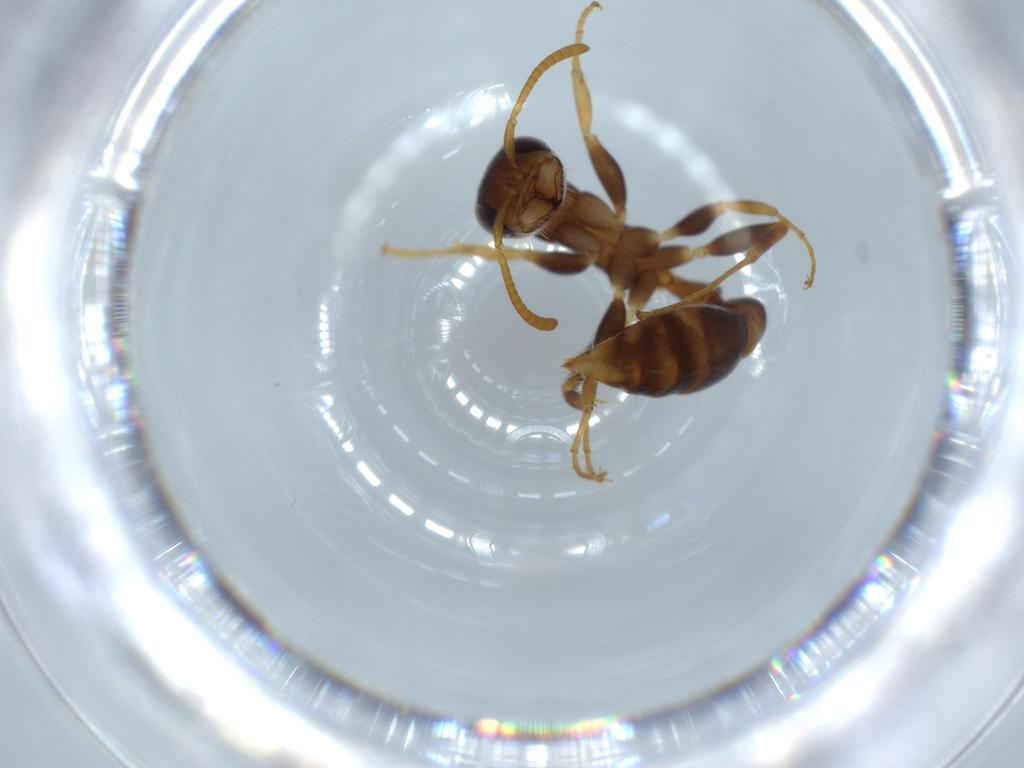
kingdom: Animalia
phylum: Arthropoda
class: Insecta
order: Hymenoptera
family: Formicidae
